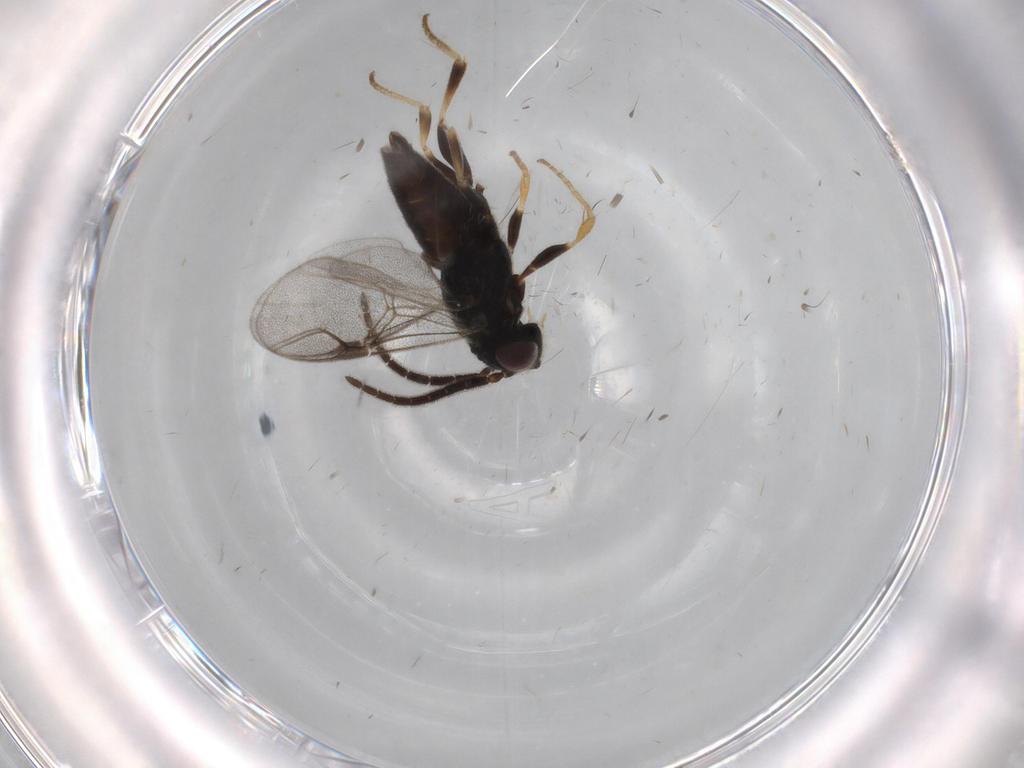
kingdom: Animalia
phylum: Arthropoda
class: Insecta
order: Hymenoptera
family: Dryinidae
